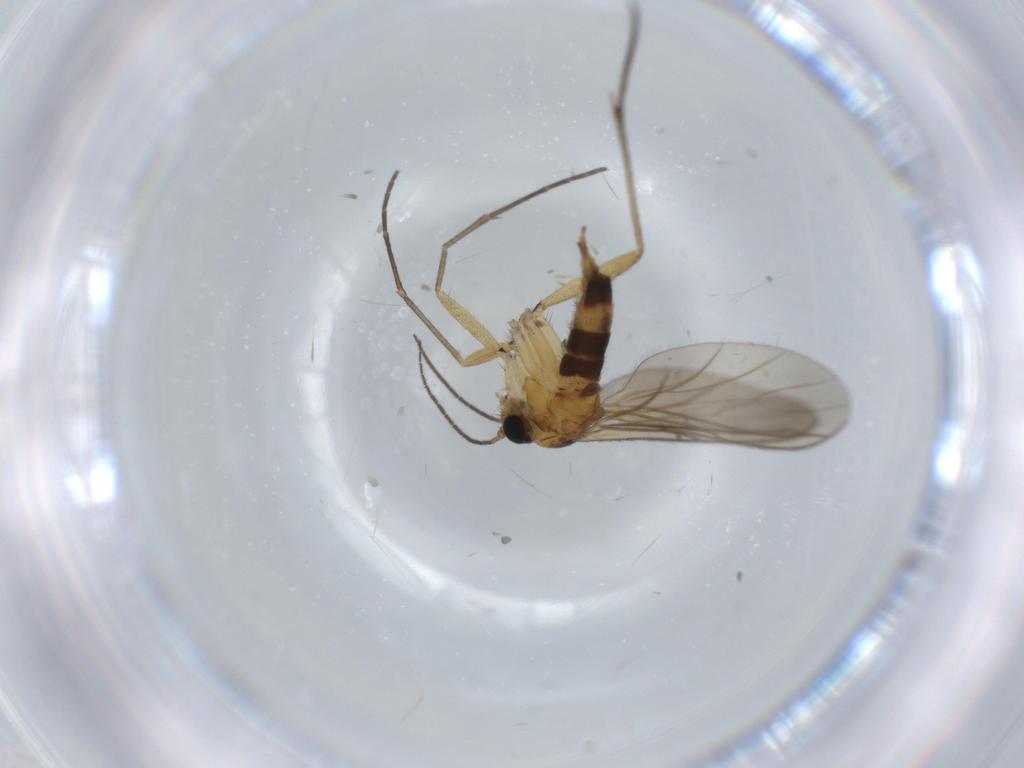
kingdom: Animalia
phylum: Arthropoda
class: Insecta
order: Diptera
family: Sciaridae
